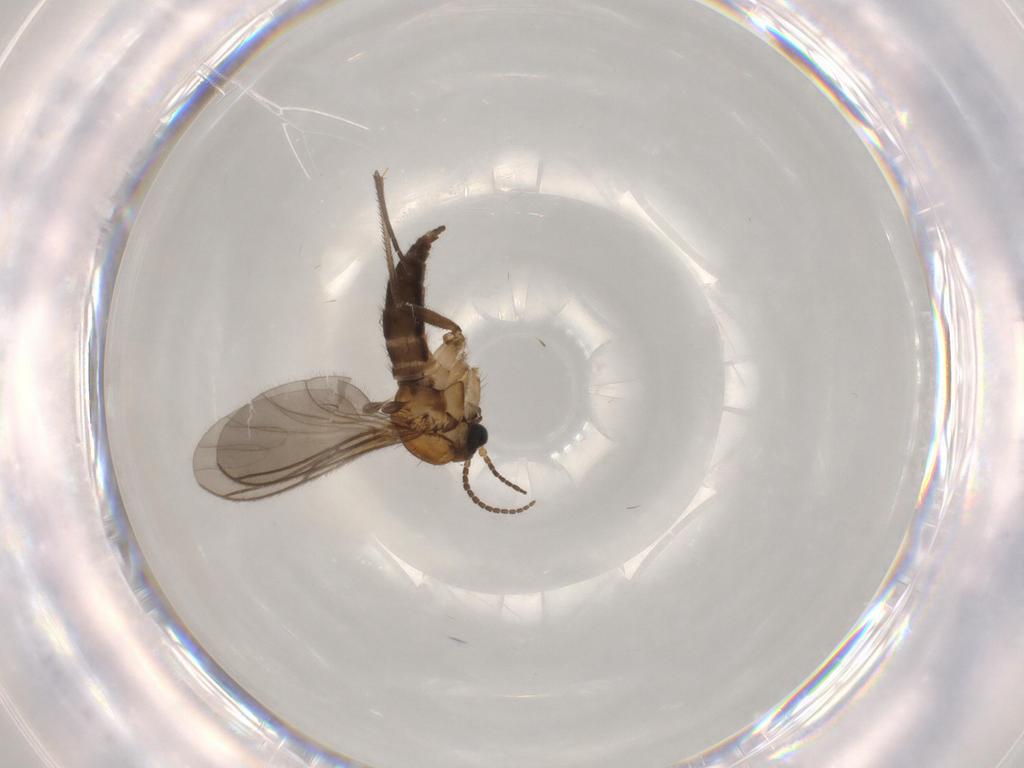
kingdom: Animalia
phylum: Arthropoda
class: Insecta
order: Diptera
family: Sciaridae
